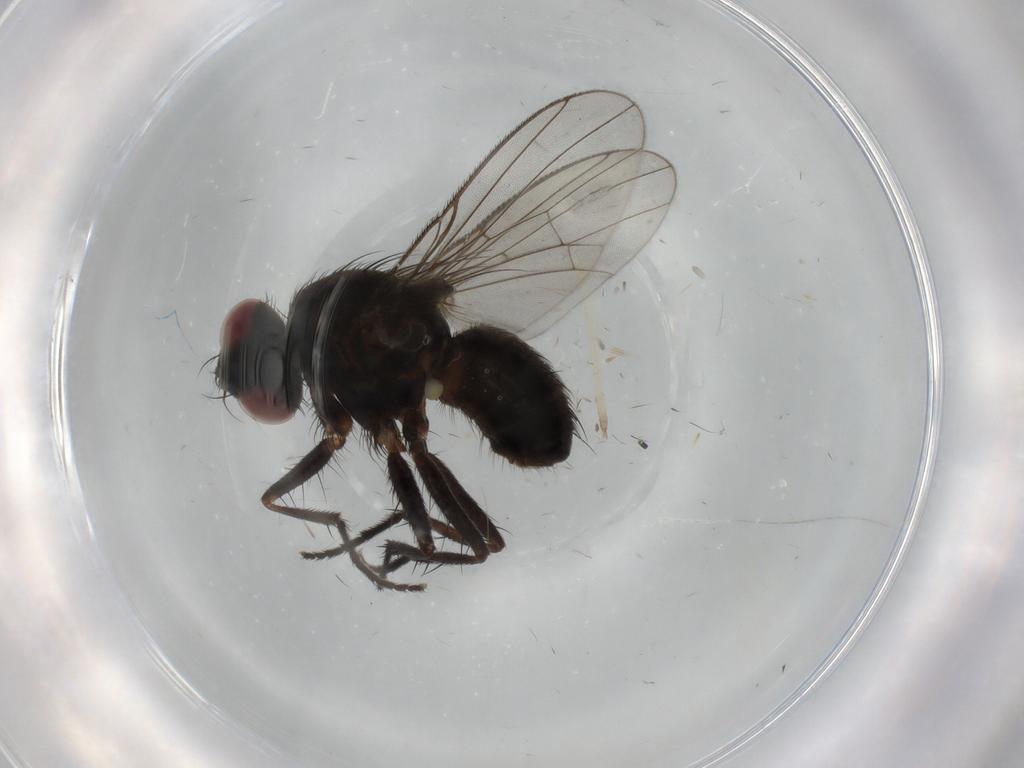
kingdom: Animalia
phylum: Arthropoda
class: Insecta
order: Diptera
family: Muscidae
